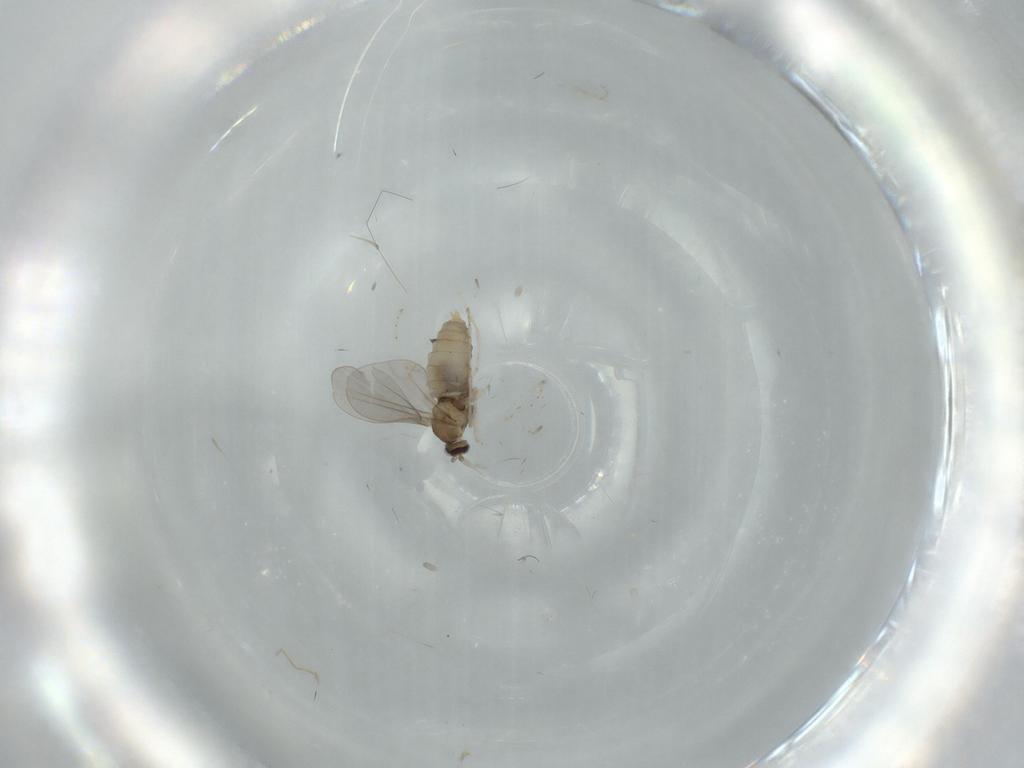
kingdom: Animalia
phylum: Arthropoda
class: Insecta
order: Diptera
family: Cecidomyiidae
